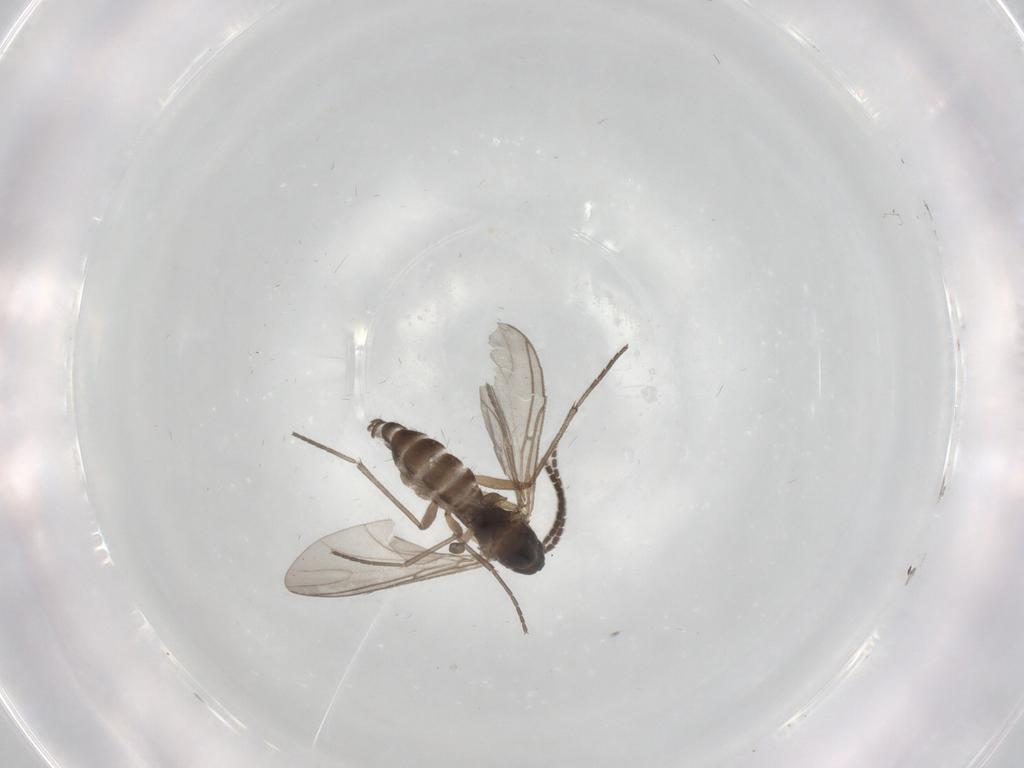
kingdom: Animalia
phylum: Arthropoda
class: Insecta
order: Diptera
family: Sciaridae
